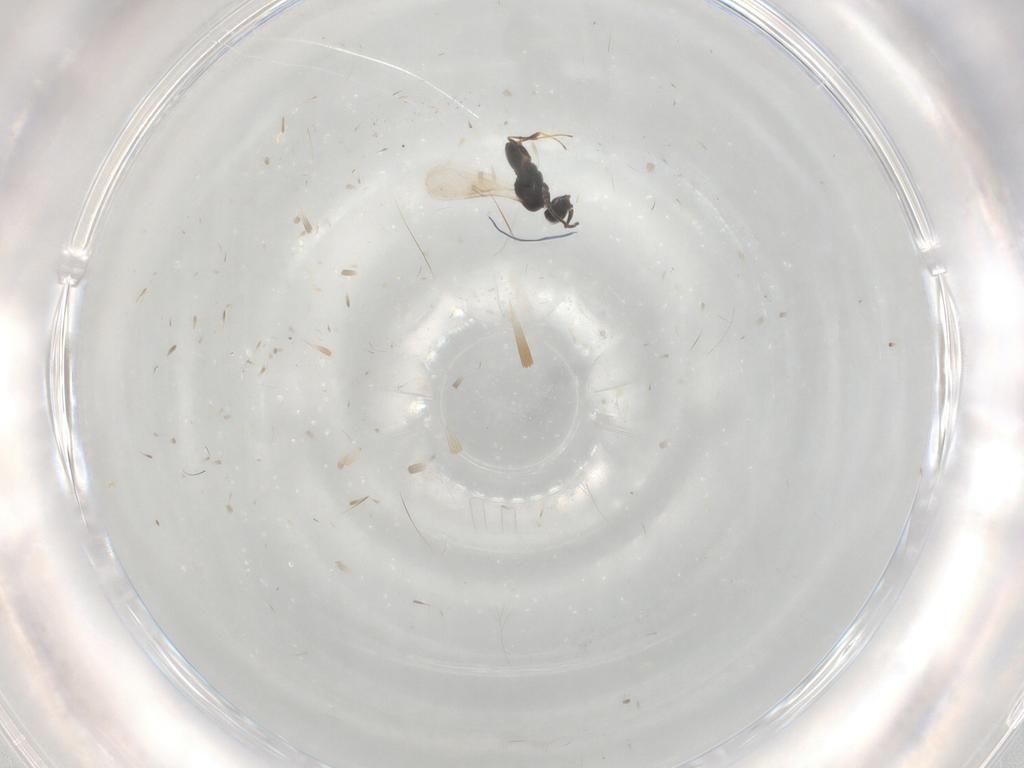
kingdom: Animalia
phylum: Arthropoda
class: Insecta
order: Hymenoptera
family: Scelionidae
